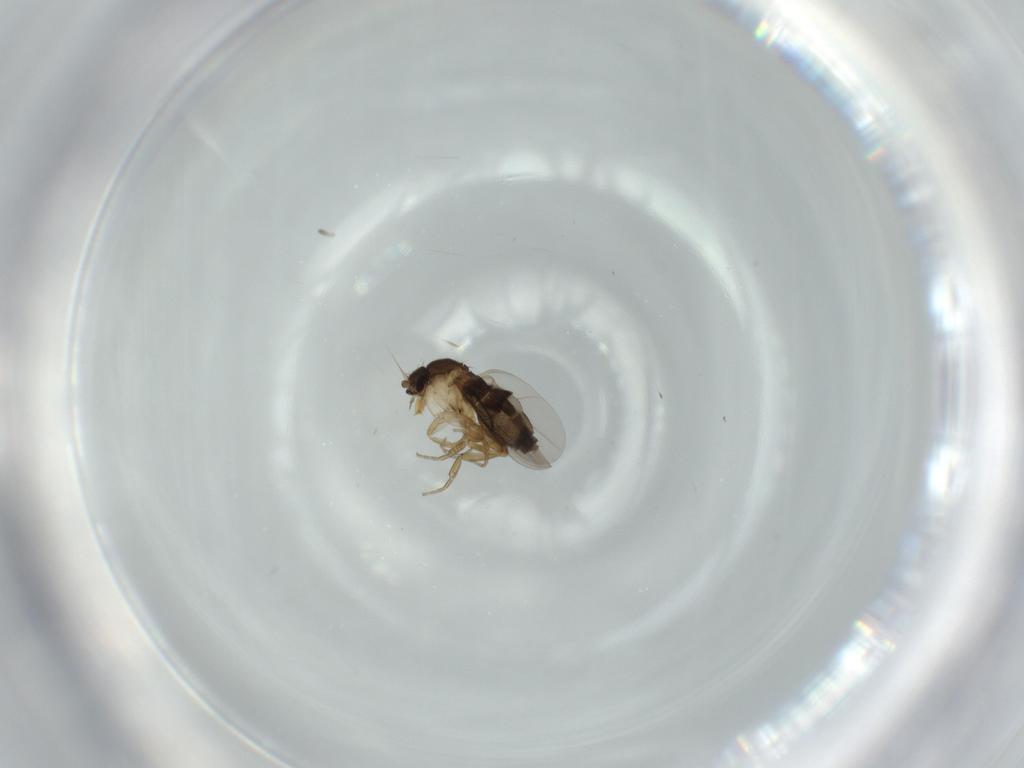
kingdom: Animalia
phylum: Arthropoda
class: Insecta
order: Diptera
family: Phoridae
